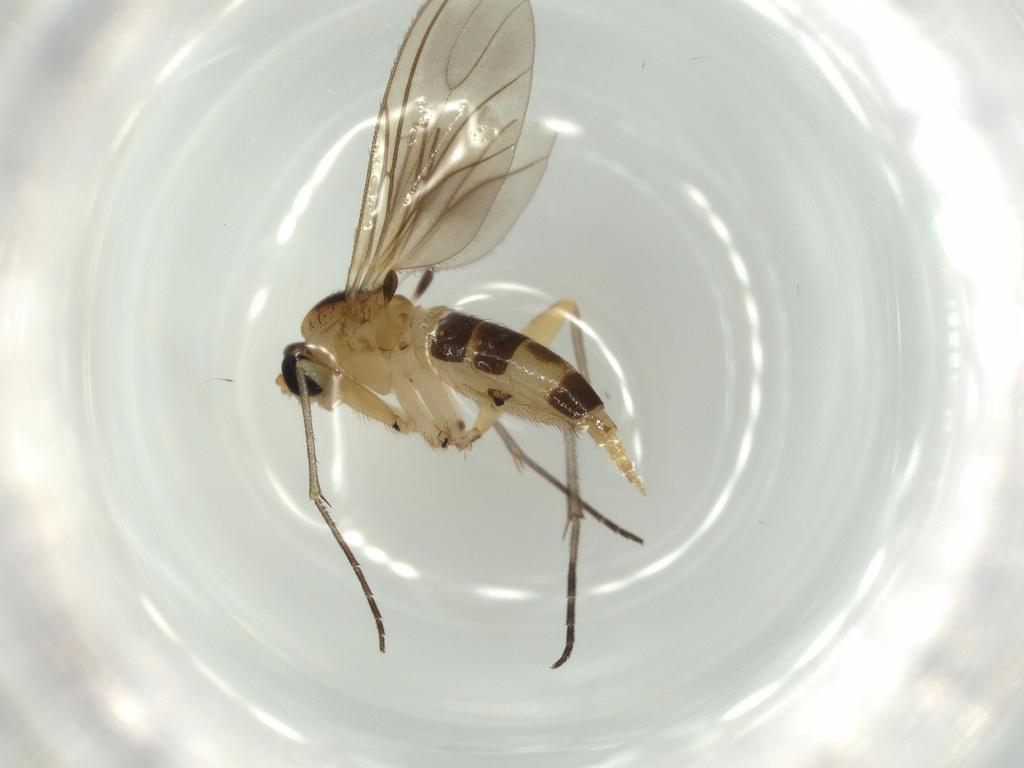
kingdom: Animalia
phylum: Arthropoda
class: Insecta
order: Diptera
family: Sciaridae
